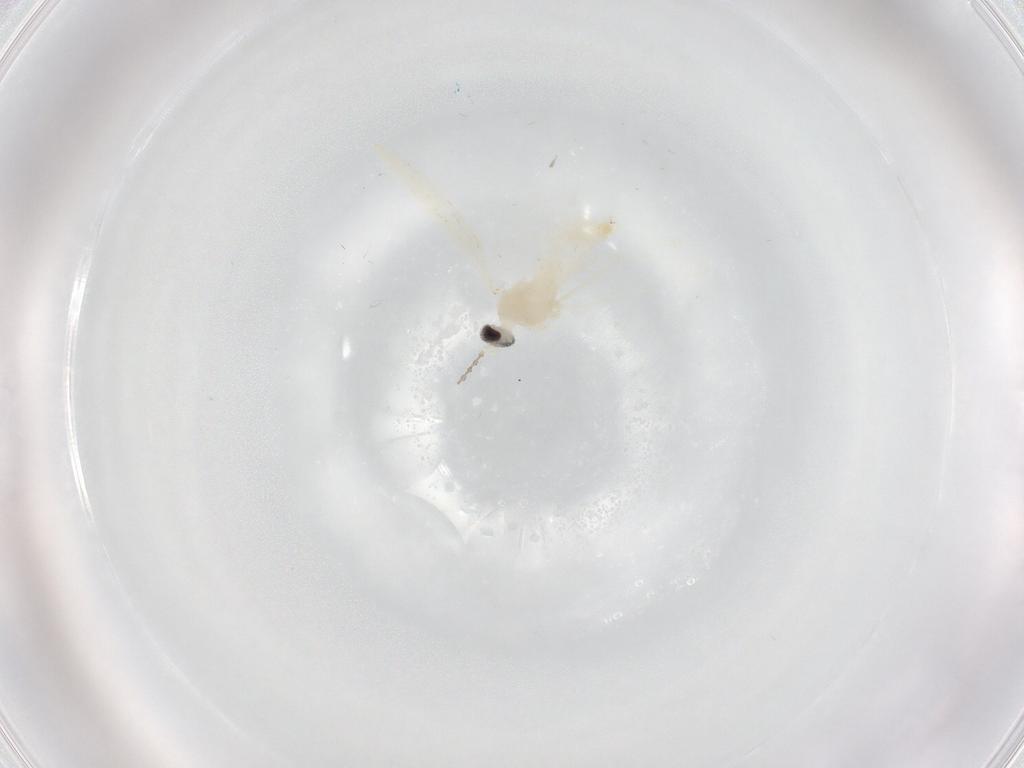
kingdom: Animalia
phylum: Arthropoda
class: Insecta
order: Diptera
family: Cecidomyiidae
